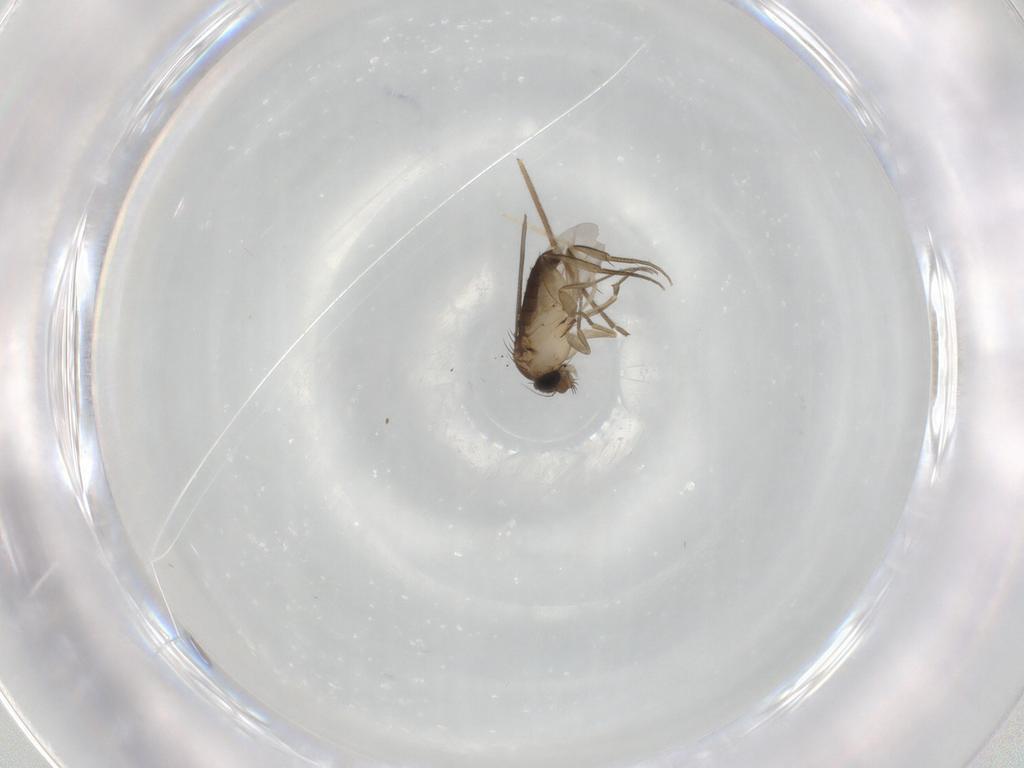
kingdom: Animalia
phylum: Arthropoda
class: Insecta
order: Diptera
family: Phoridae
